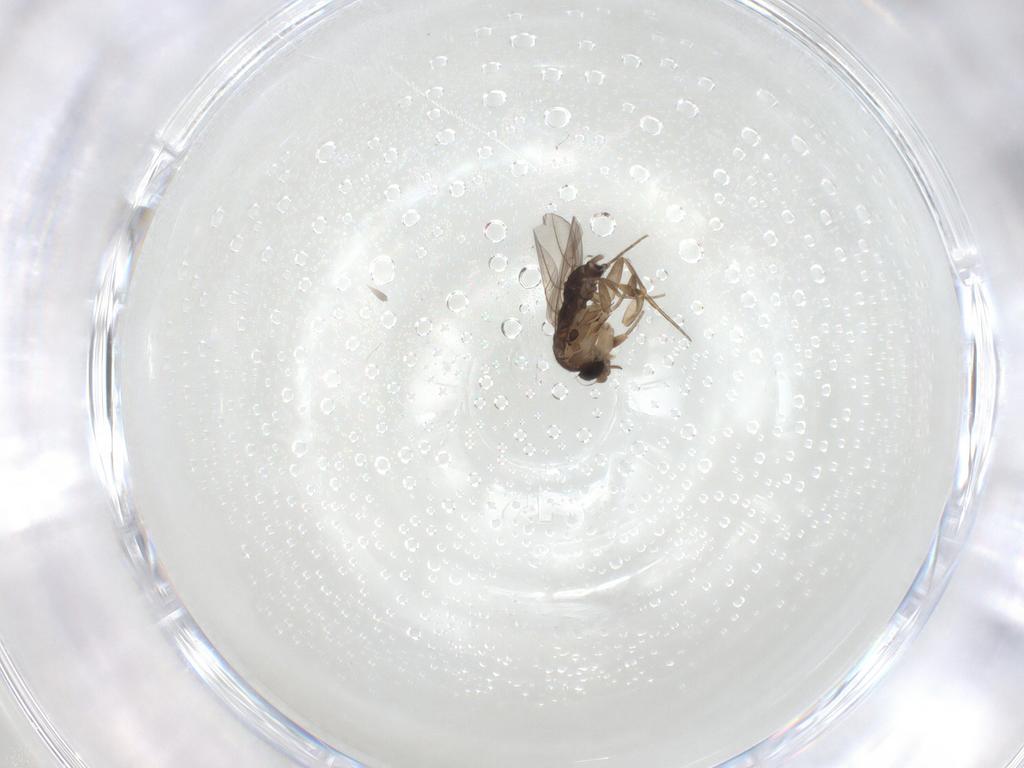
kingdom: Animalia
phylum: Arthropoda
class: Insecta
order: Diptera
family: Phoridae
